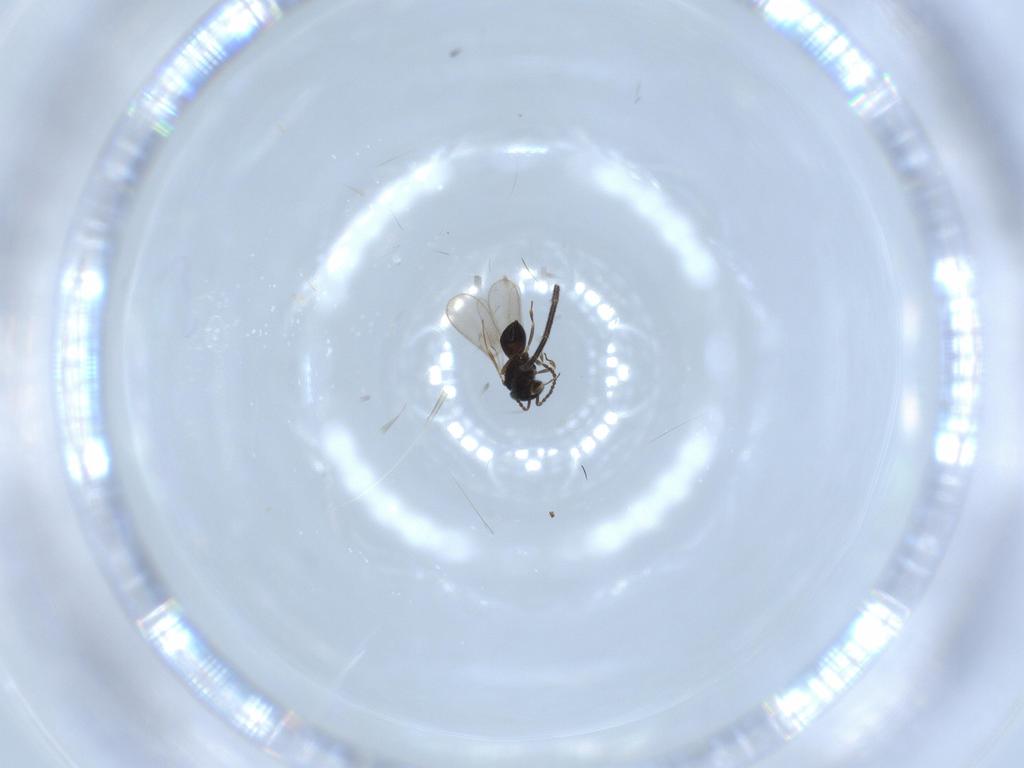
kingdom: Animalia
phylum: Arthropoda
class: Insecta
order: Hymenoptera
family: Scelionidae
